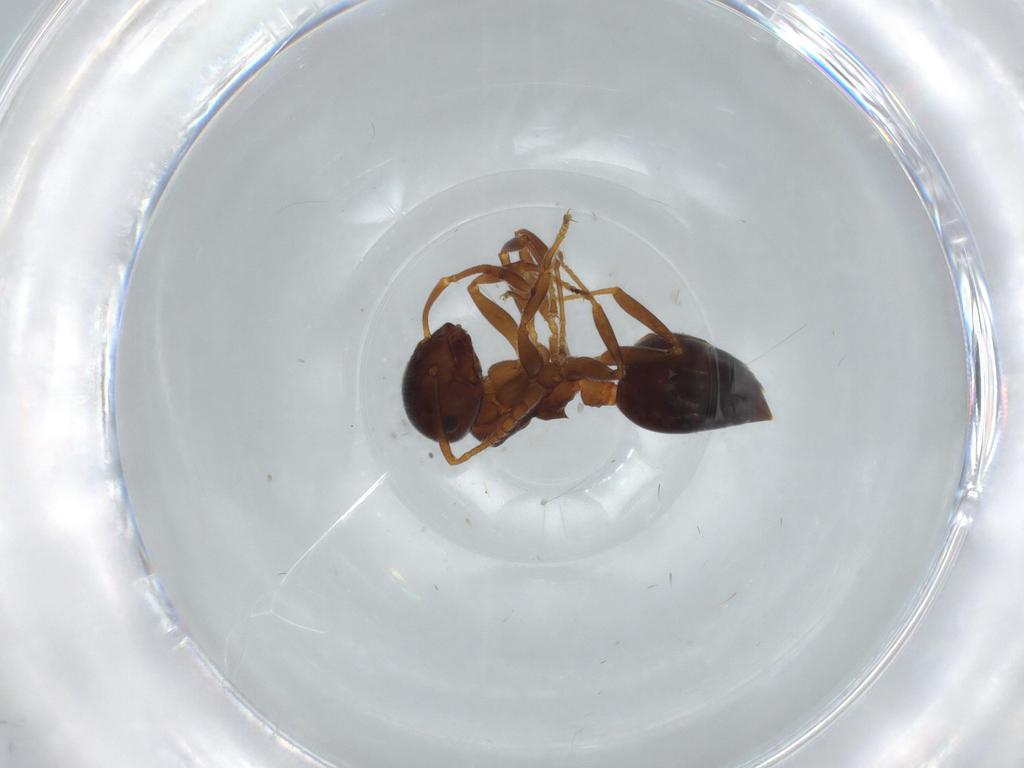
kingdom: Animalia
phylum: Arthropoda
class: Insecta
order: Hymenoptera
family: Formicidae
